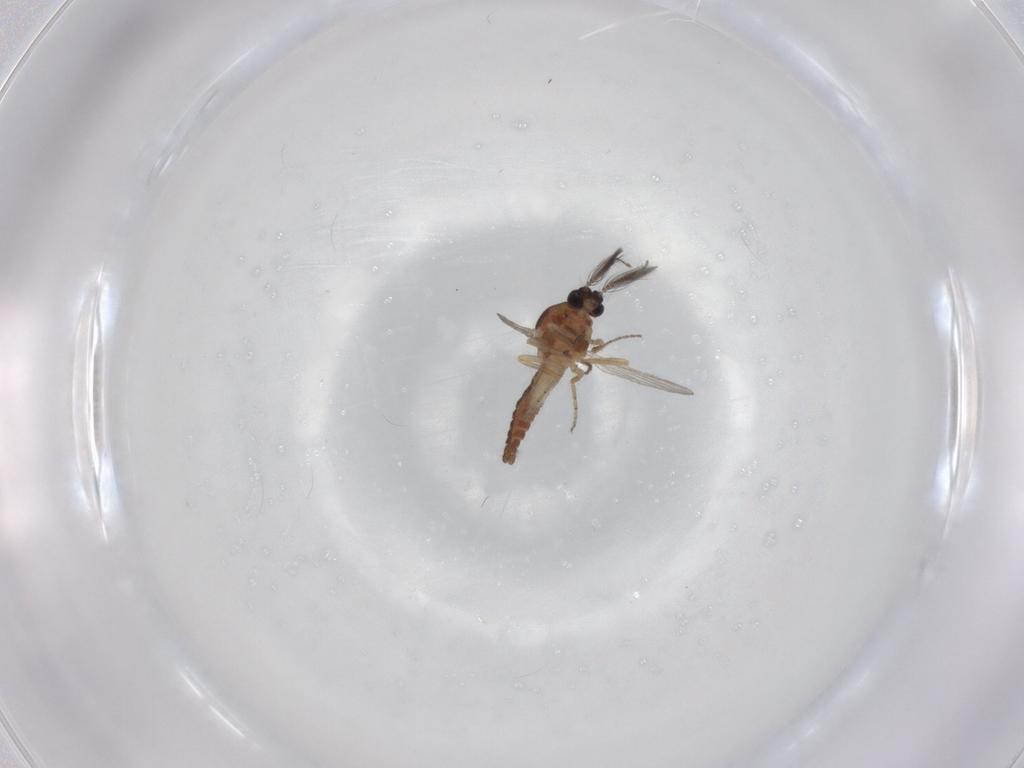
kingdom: Animalia
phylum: Arthropoda
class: Insecta
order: Diptera
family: Ceratopogonidae
